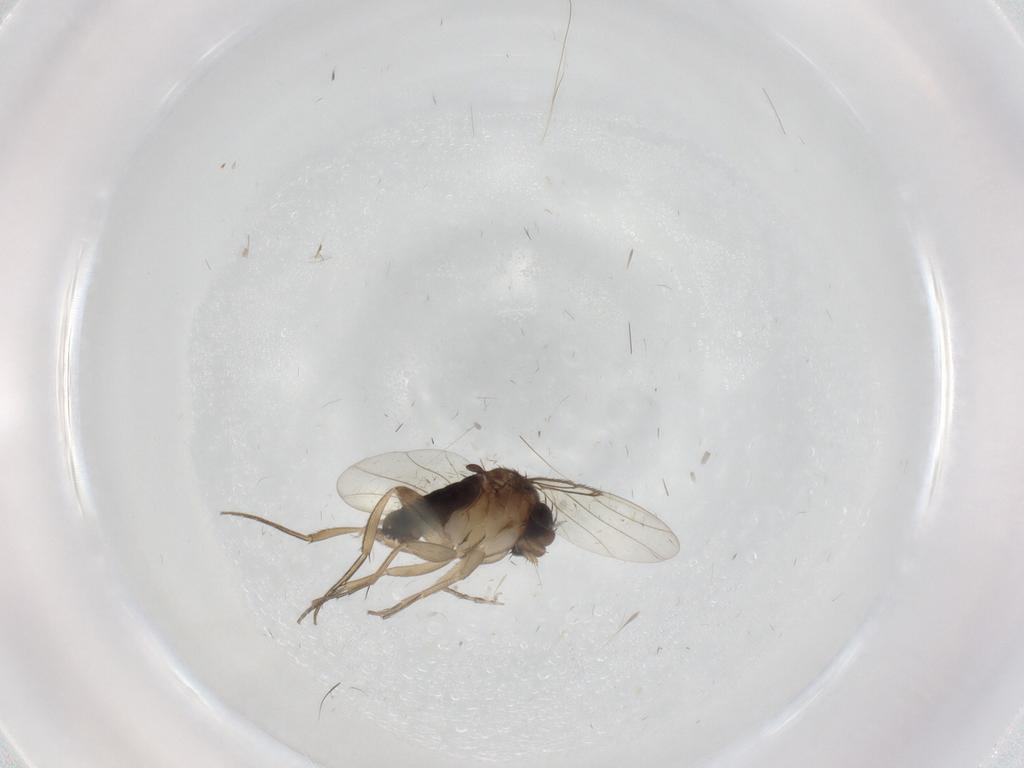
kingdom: Animalia
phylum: Arthropoda
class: Insecta
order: Diptera
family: Phoridae
